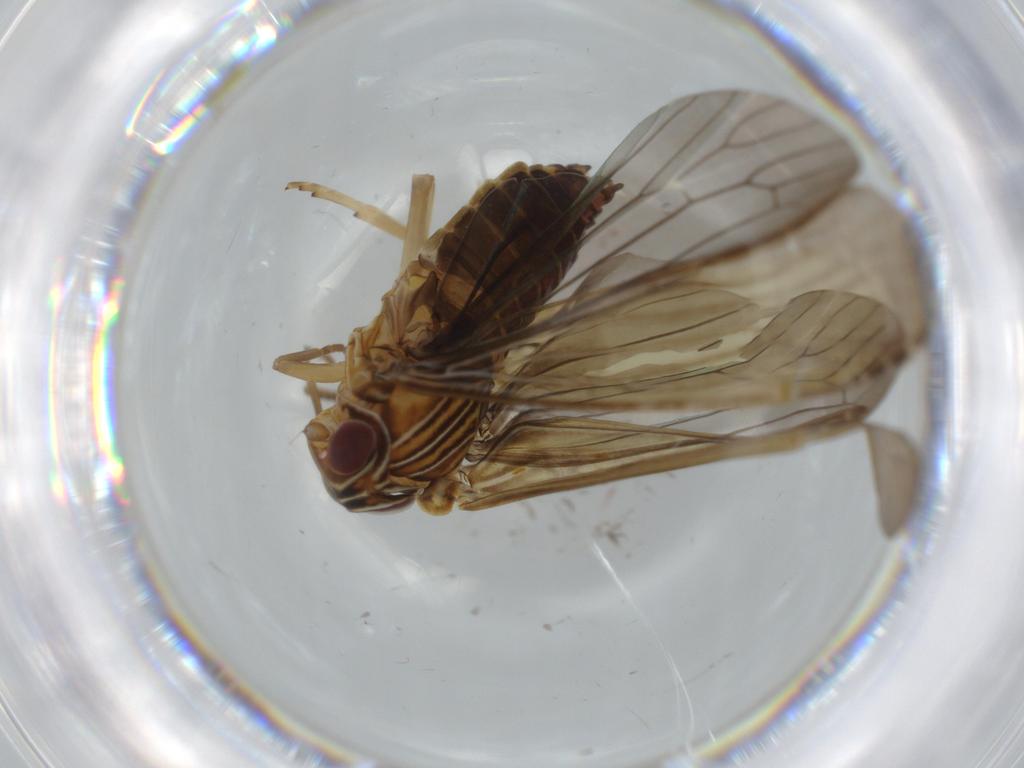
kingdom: Animalia
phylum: Arthropoda
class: Insecta
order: Hemiptera
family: Achilidae
